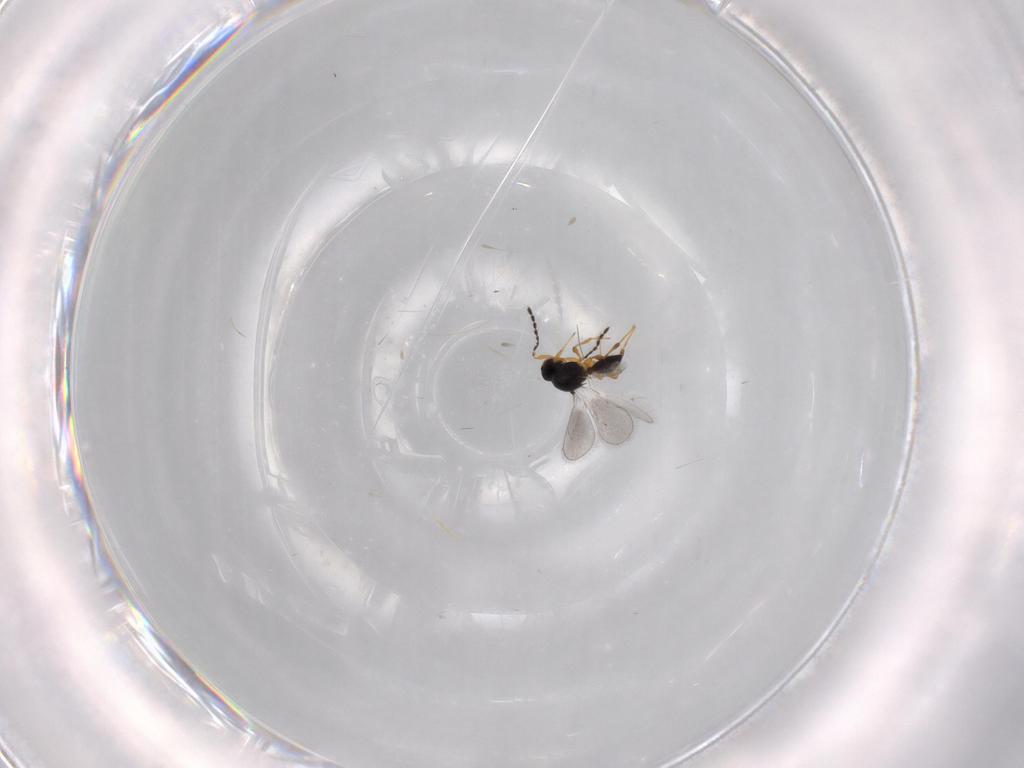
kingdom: Animalia
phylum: Arthropoda
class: Insecta
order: Hymenoptera
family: Platygastridae
